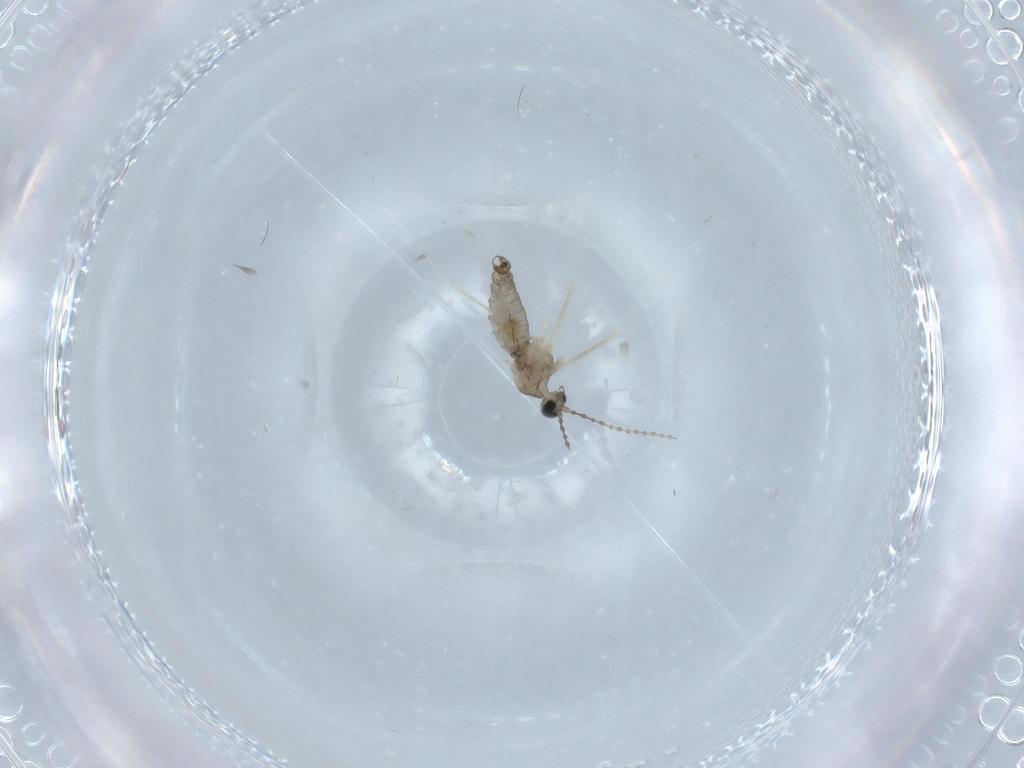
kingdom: Animalia
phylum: Arthropoda
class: Insecta
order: Diptera
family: Cecidomyiidae
